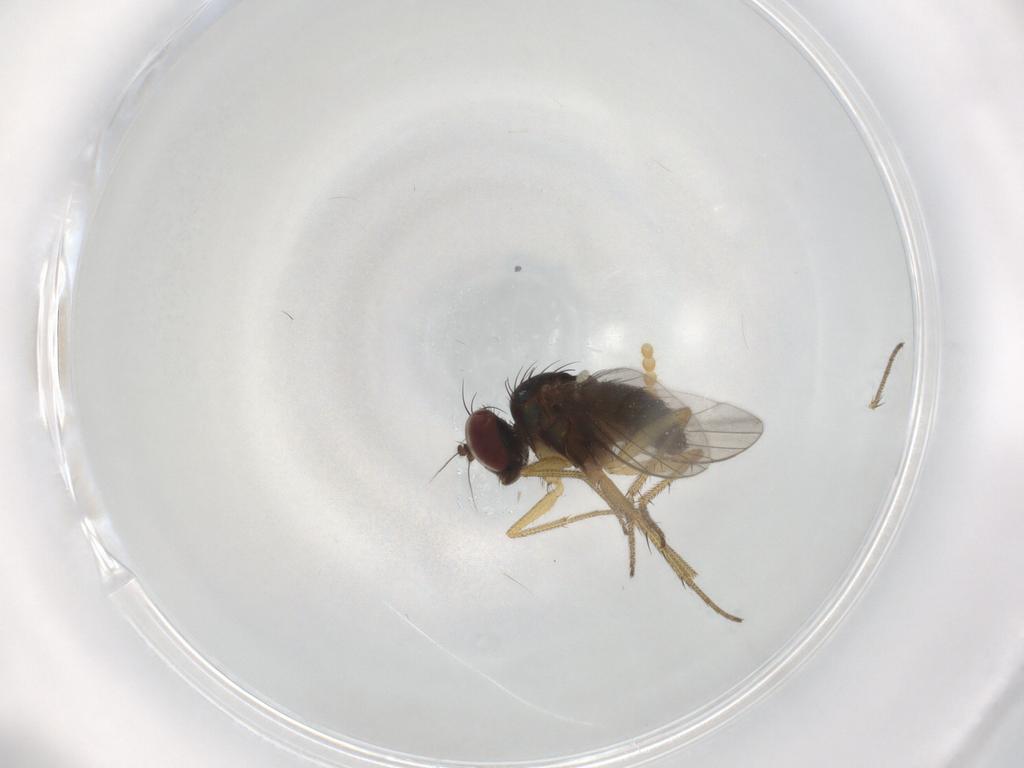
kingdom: Animalia
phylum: Arthropoda
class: Insecta
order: Diptera
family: Dolichopodidae
